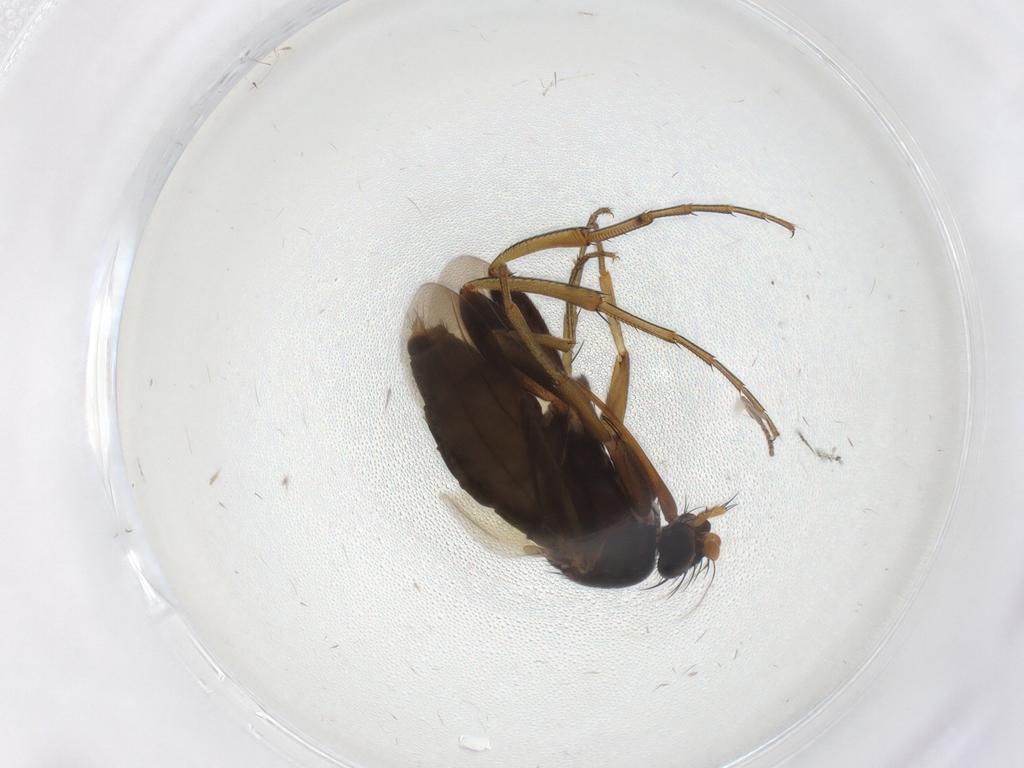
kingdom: Animalia
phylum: Arthropoda
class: Insecta
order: Diptera
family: Phoridae
